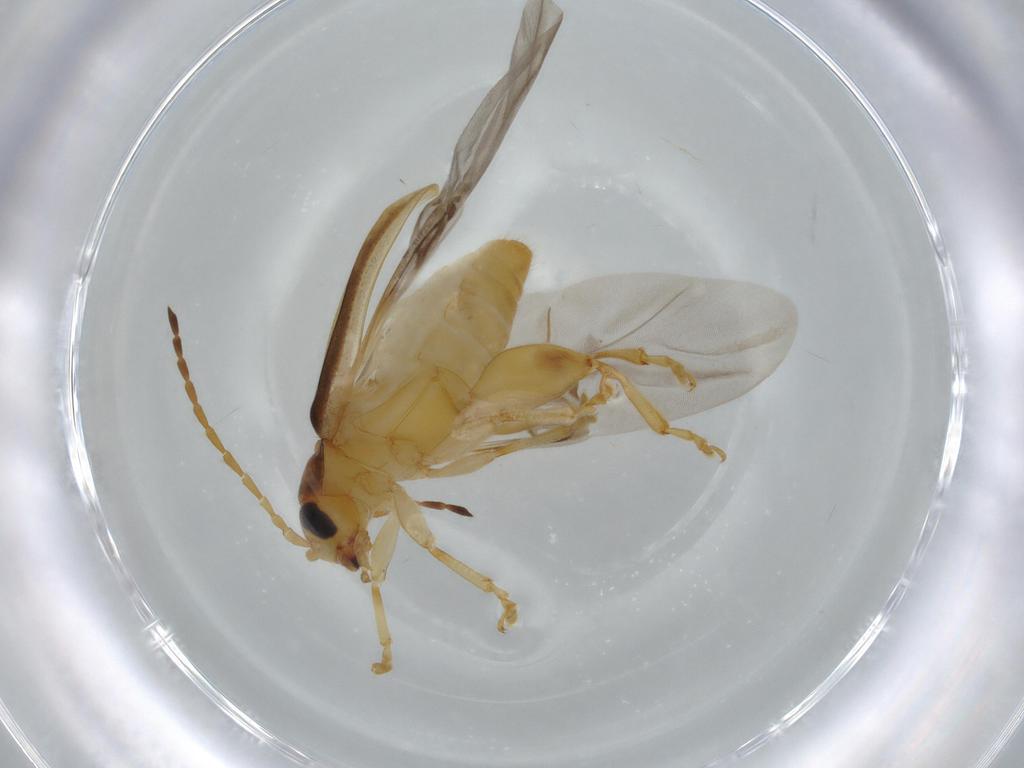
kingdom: Animalia
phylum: Arthropoda
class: Insecta
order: Coleoptera
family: Chrysomelidae
